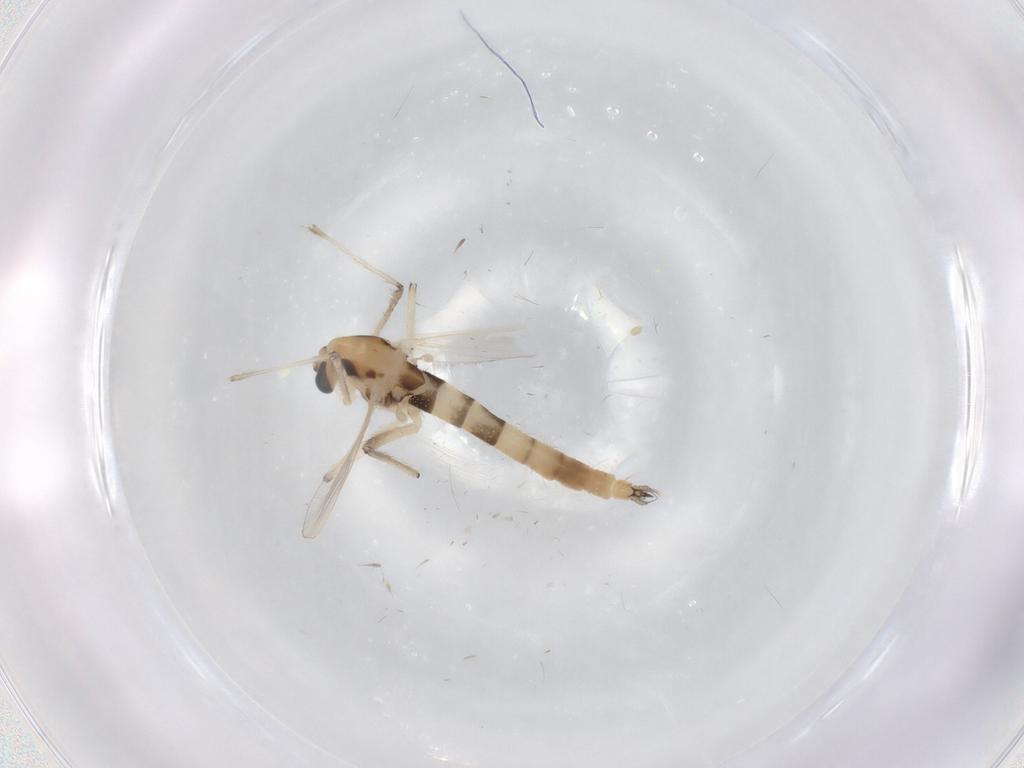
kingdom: Animalia
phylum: Arthropoda
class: Insecta
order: Diptera
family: Chironomidae
